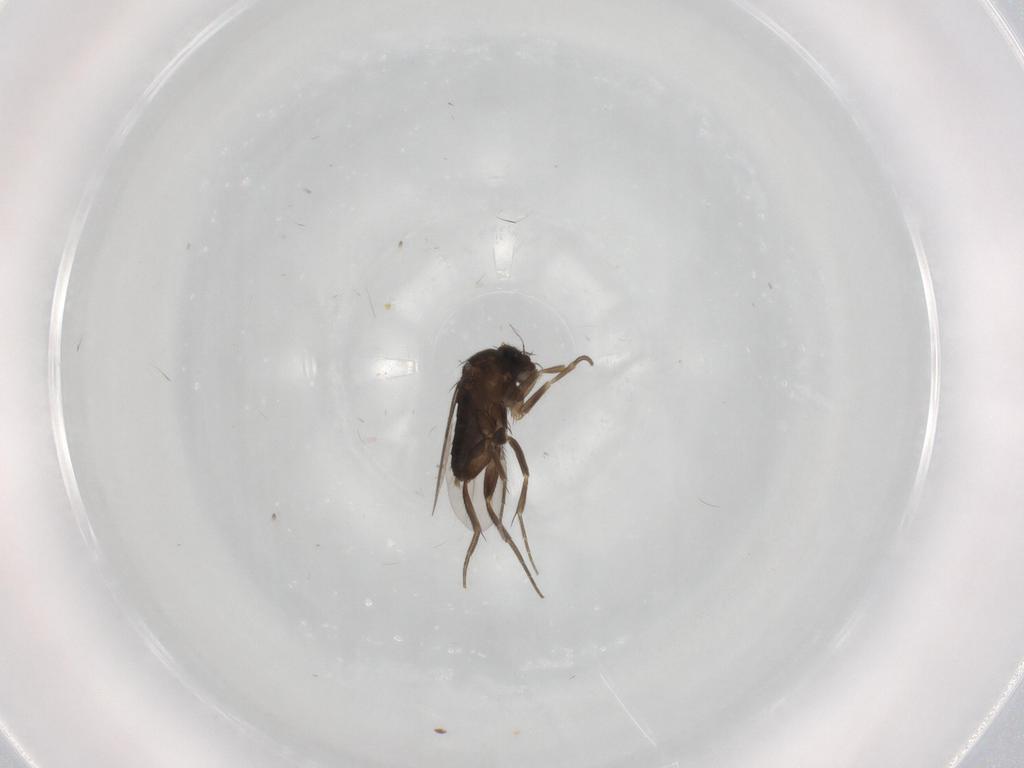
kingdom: Animalia
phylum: Arthropoda
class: Insecta
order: Diptera
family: Phoridae
